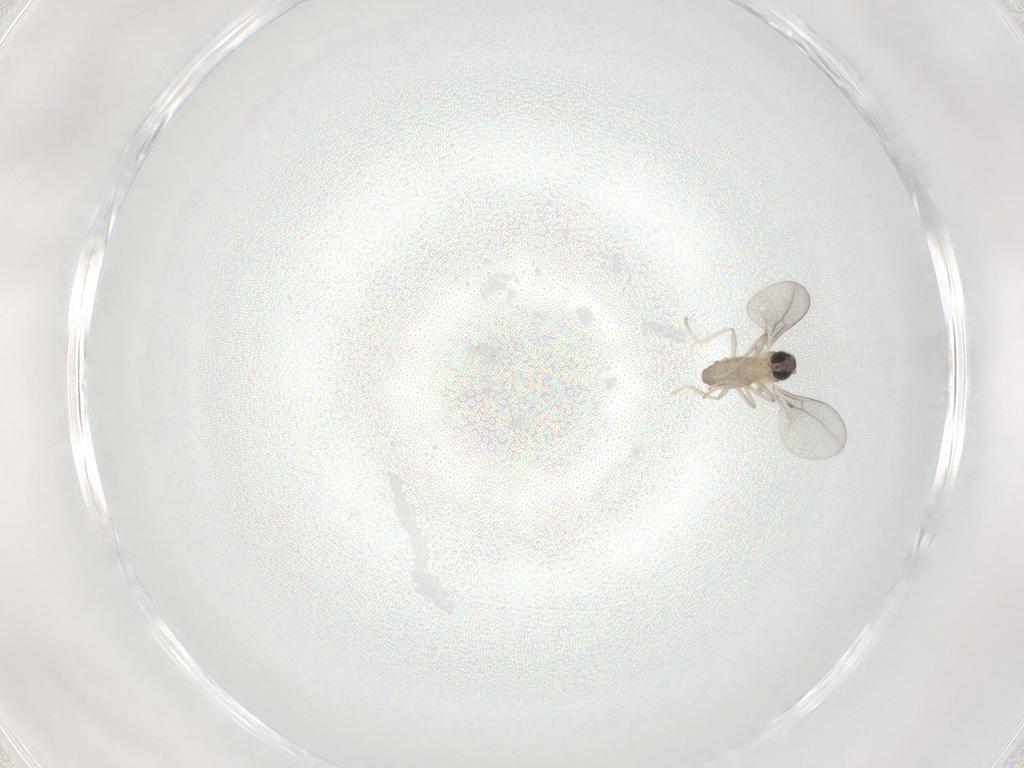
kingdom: Animalia
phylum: Arthropoda
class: Insecta
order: Diptera
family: Cecidomyiidae
